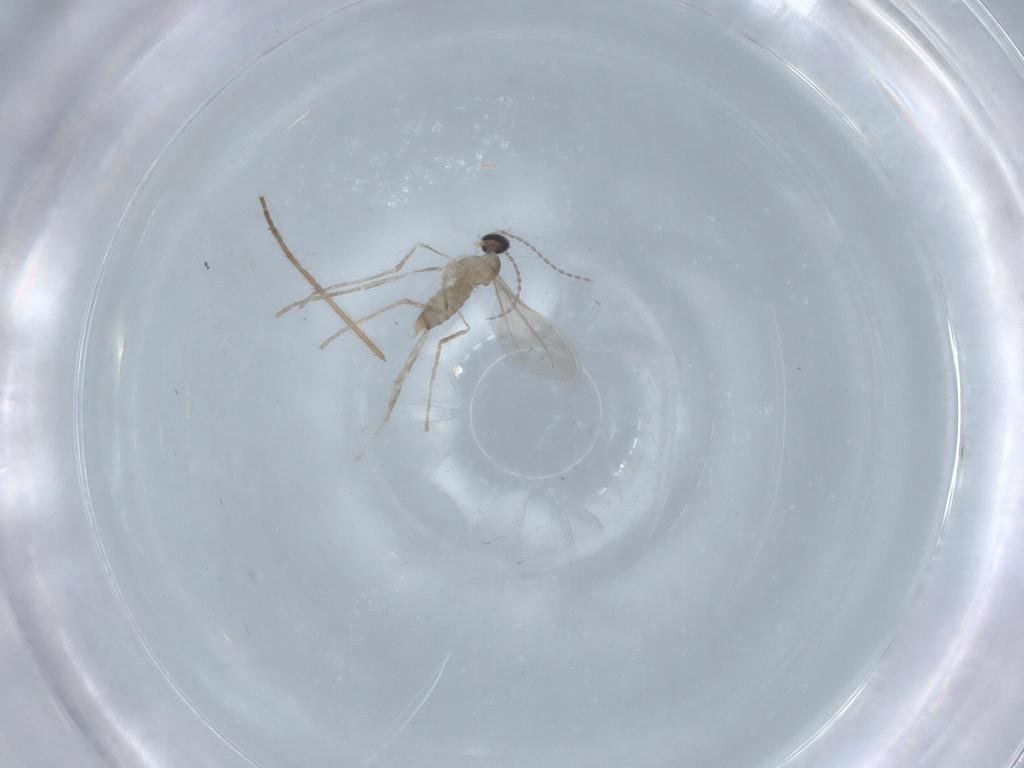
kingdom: Animalia
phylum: Arthropoda
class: Insecta
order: Diptera
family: Cecidomyiidae
